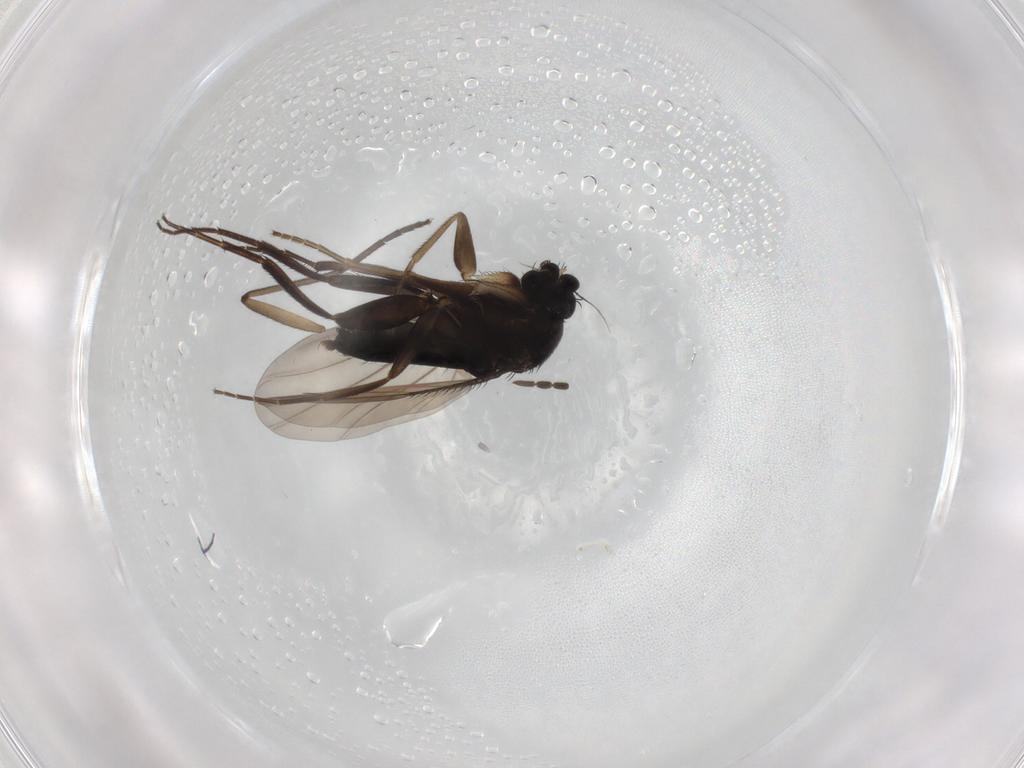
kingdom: Animalia
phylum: Arthropoda
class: Insecta
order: Diptera
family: Phoridae
